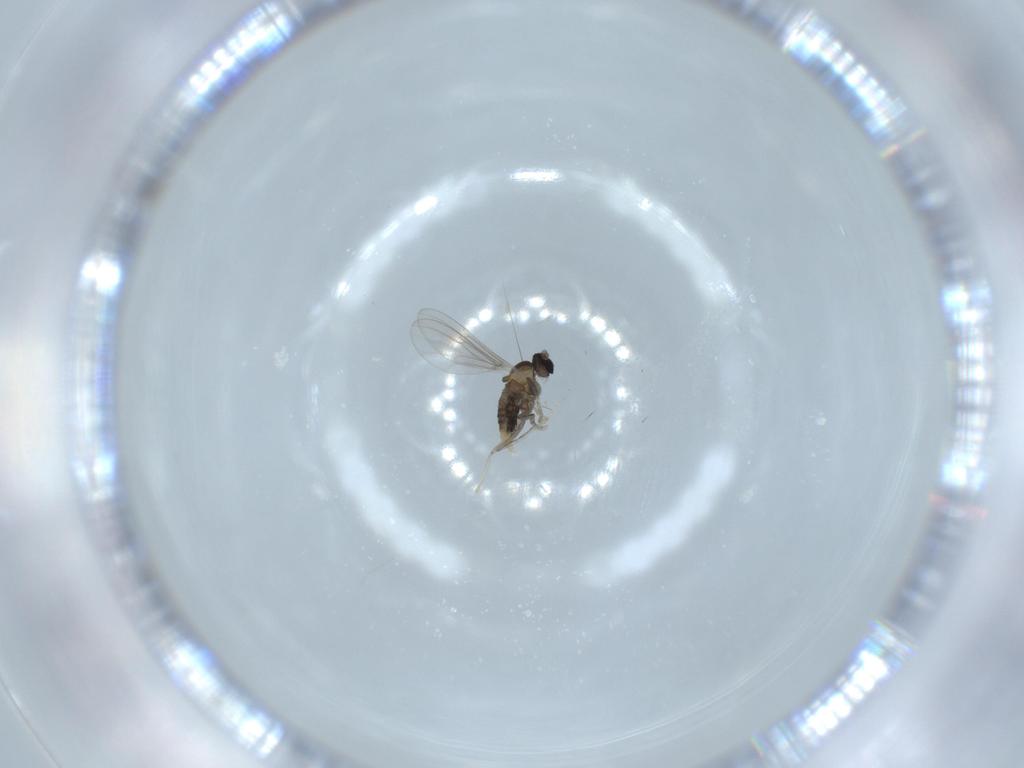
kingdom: Animalia
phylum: Arthropoda
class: Insecta
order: Diptera
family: Cecidomyiidae
